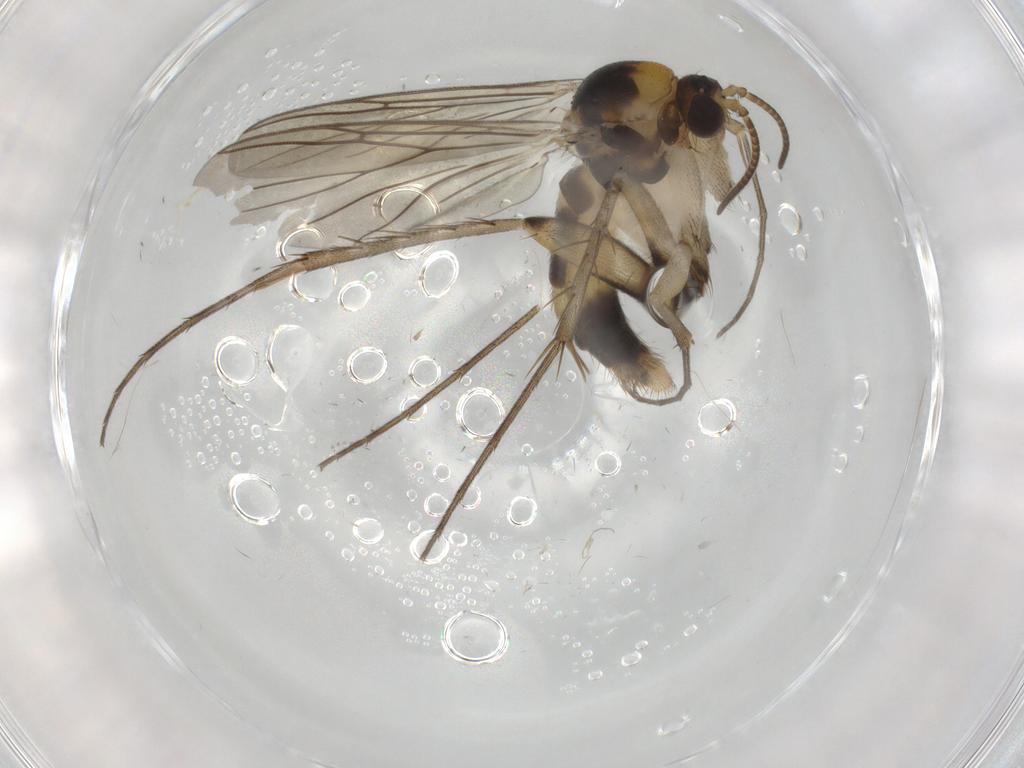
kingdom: Animalia
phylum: Arthropoda
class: Insecta
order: Diptera
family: Mycetophilidae
